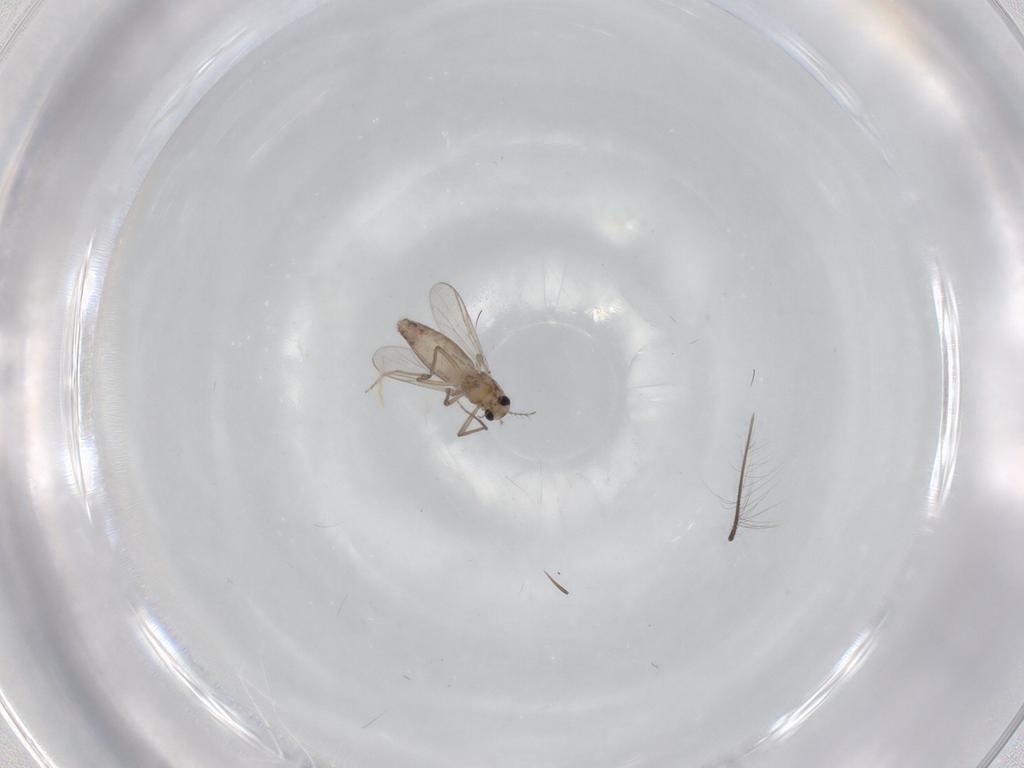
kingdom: Animalia
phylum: Arthropoda
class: Insecta
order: Diptera
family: Chironomidae
